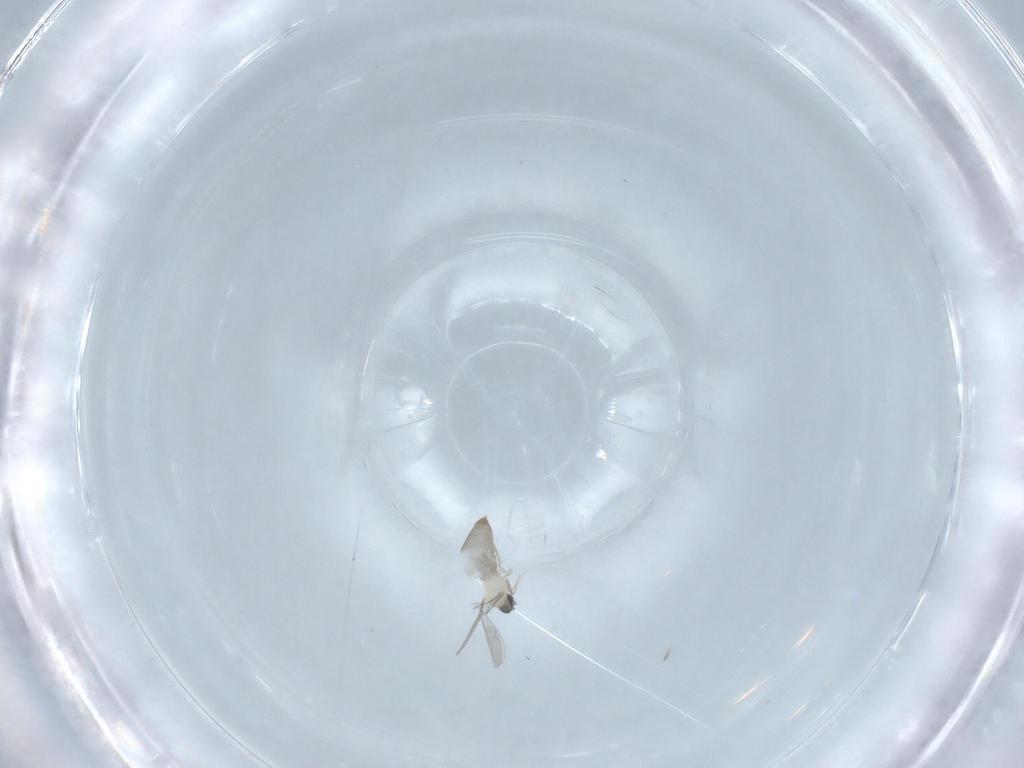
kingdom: Animalia
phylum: Arthropoda
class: Insecta
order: Diptera
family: Cecidomyiidae
